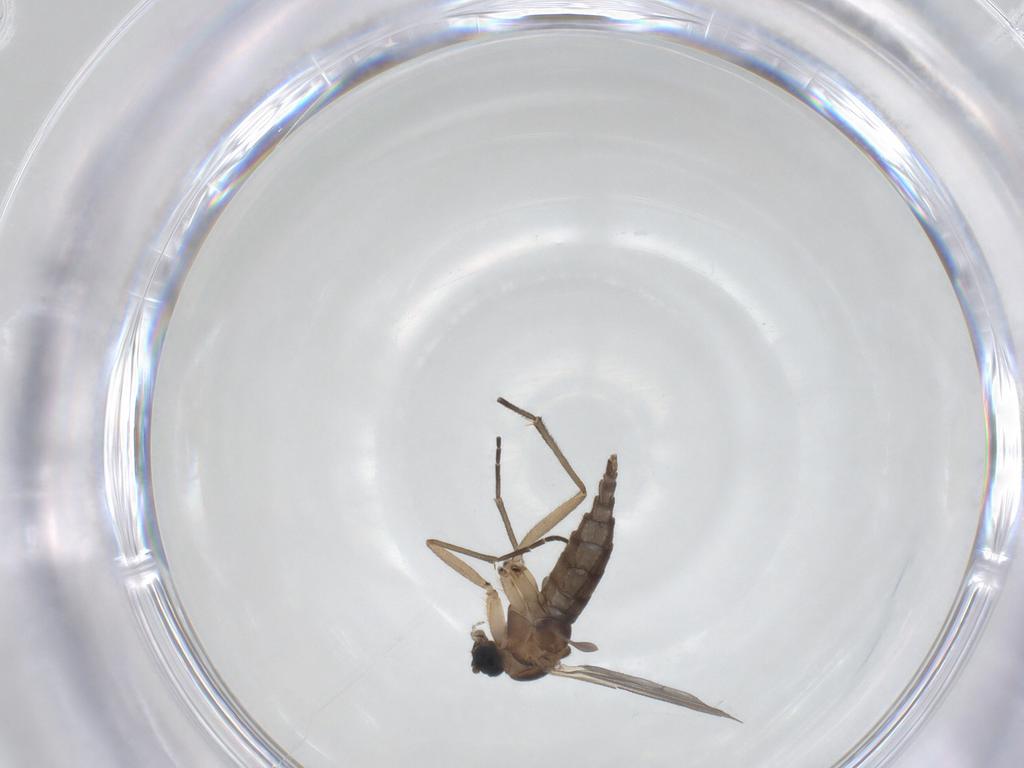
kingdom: Animalia
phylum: Arthropoda
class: Insecta
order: Diptera
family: Sciaridae
